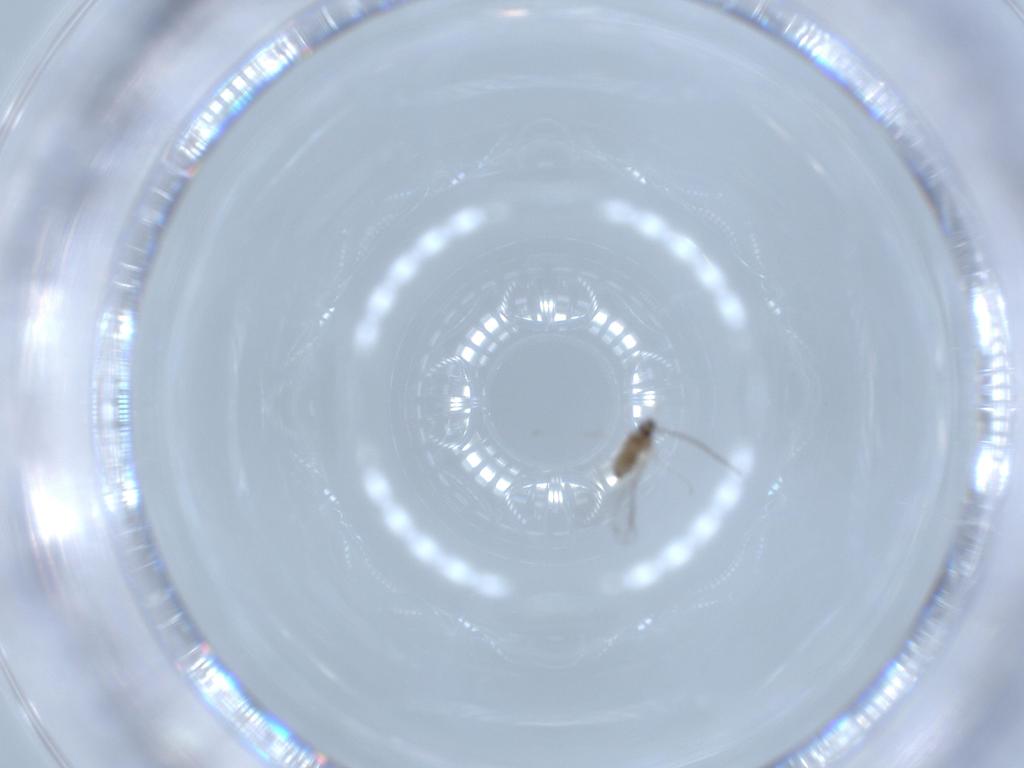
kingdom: Animalia
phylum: Arthropoda
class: Insecta
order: Diptera
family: Cecidomyiidae
